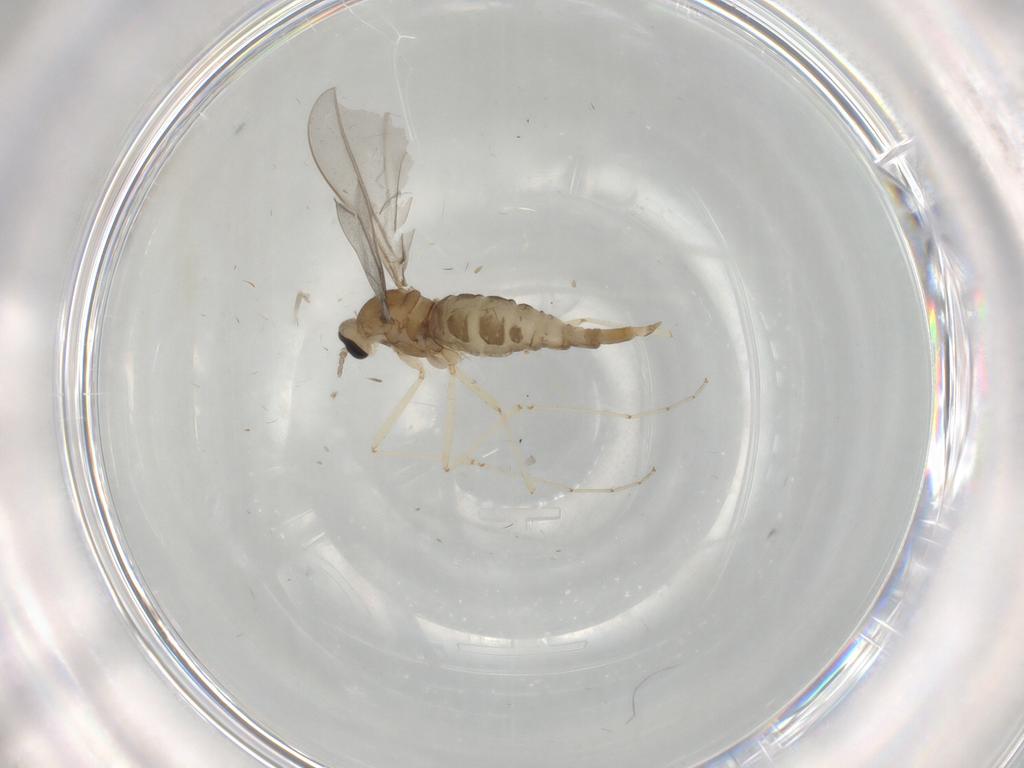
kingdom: Animalia
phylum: Arthropoda
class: Insecta
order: Diptera
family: Cecidomyiidae
